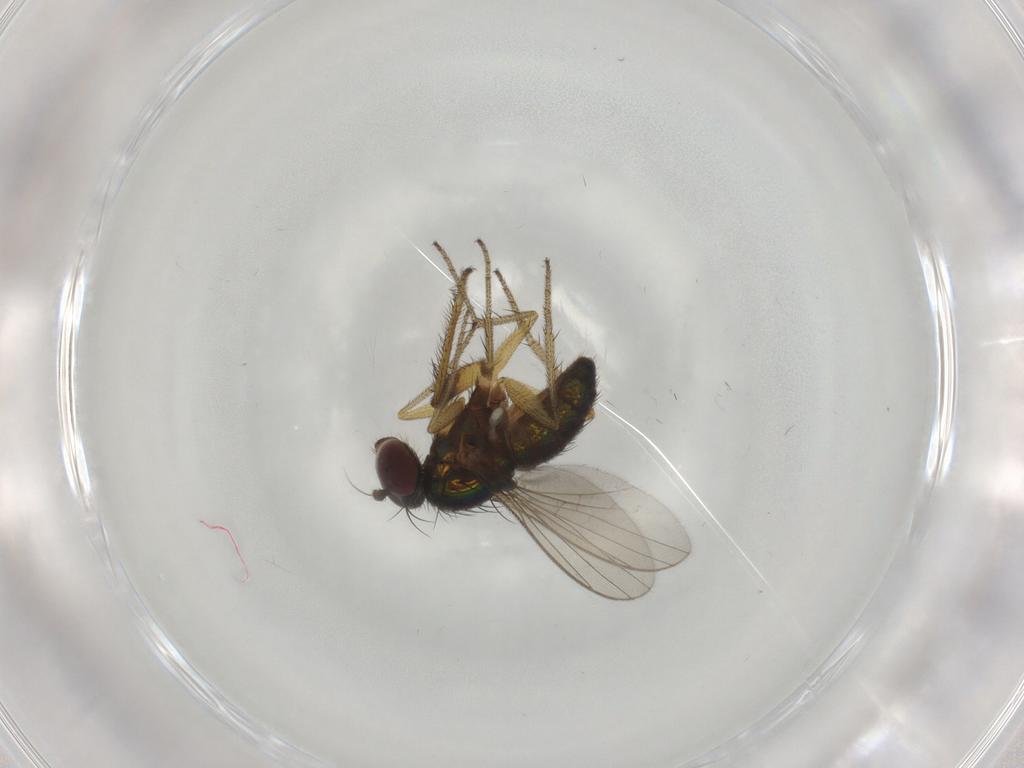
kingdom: Animalia
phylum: Arthropoda
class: Insecta
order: Diptera
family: Dolichopodidae
